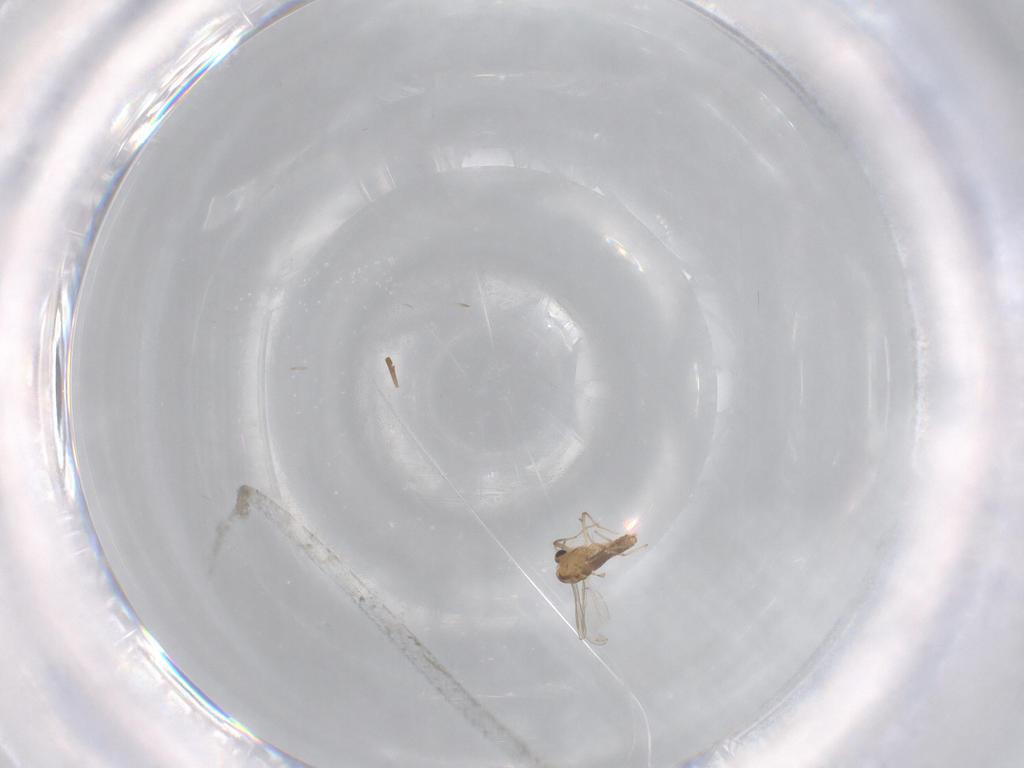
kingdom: Animalia
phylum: Arthropoda
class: Insecta
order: Diptera
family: Chironomidae
